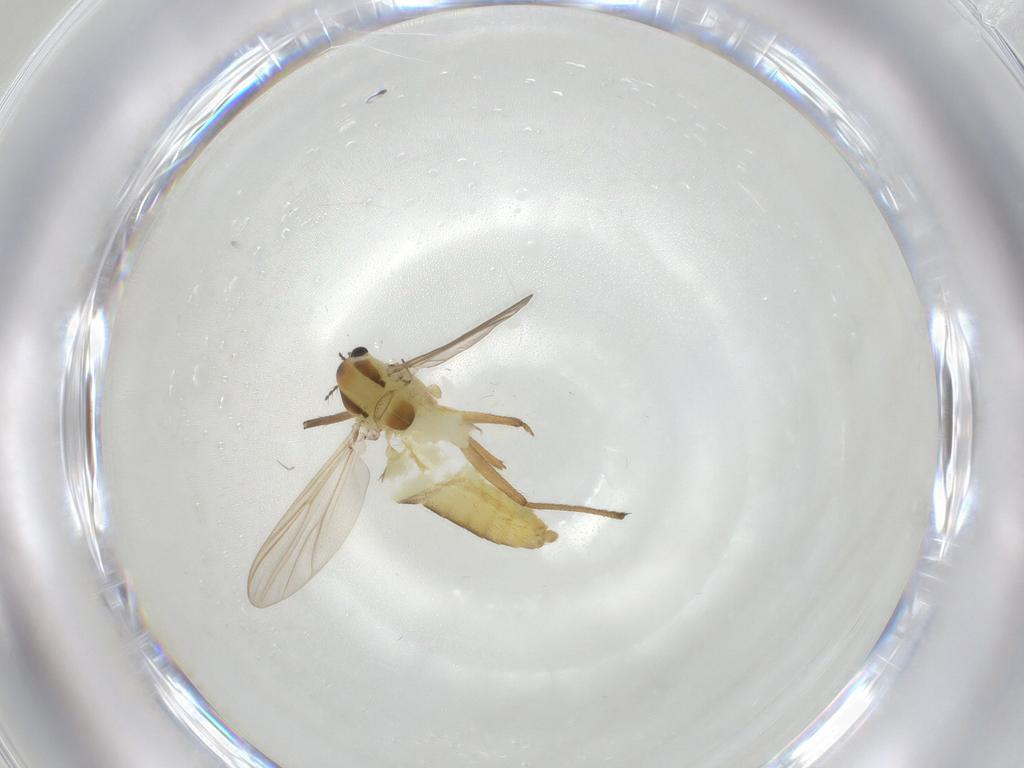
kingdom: Animalia
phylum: Arthropoda
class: Insecta
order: Diptera
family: Chironomidae
